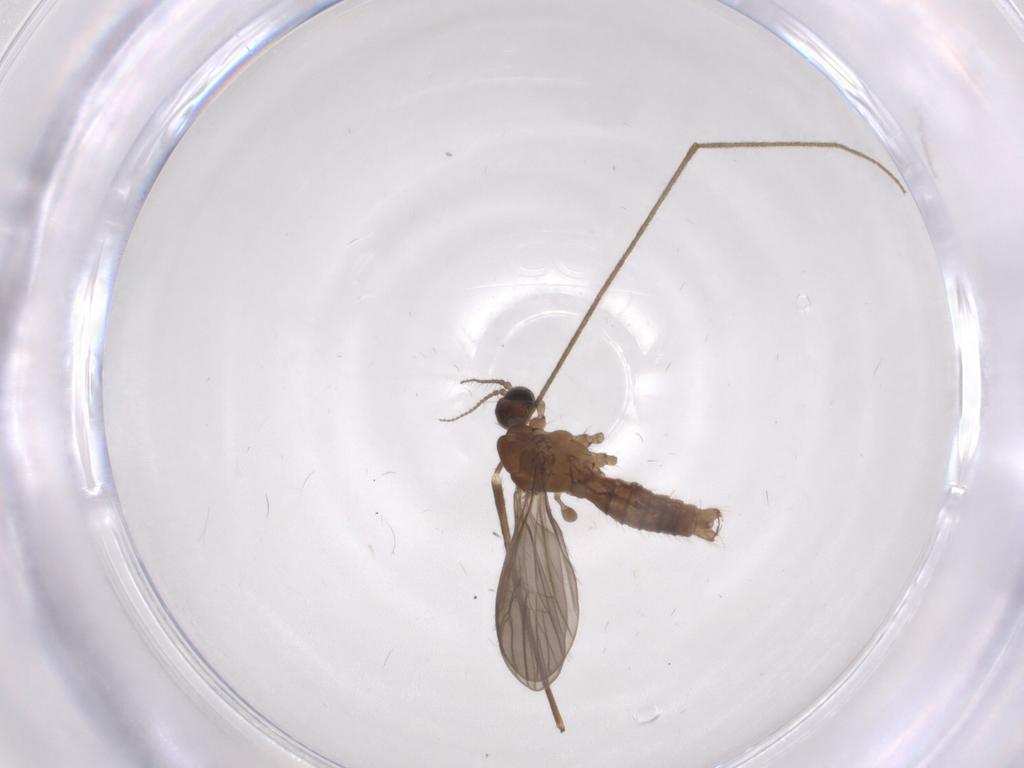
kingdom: Animalia
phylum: Arthropoda
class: Insecta
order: Diptera
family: Limoniidae
